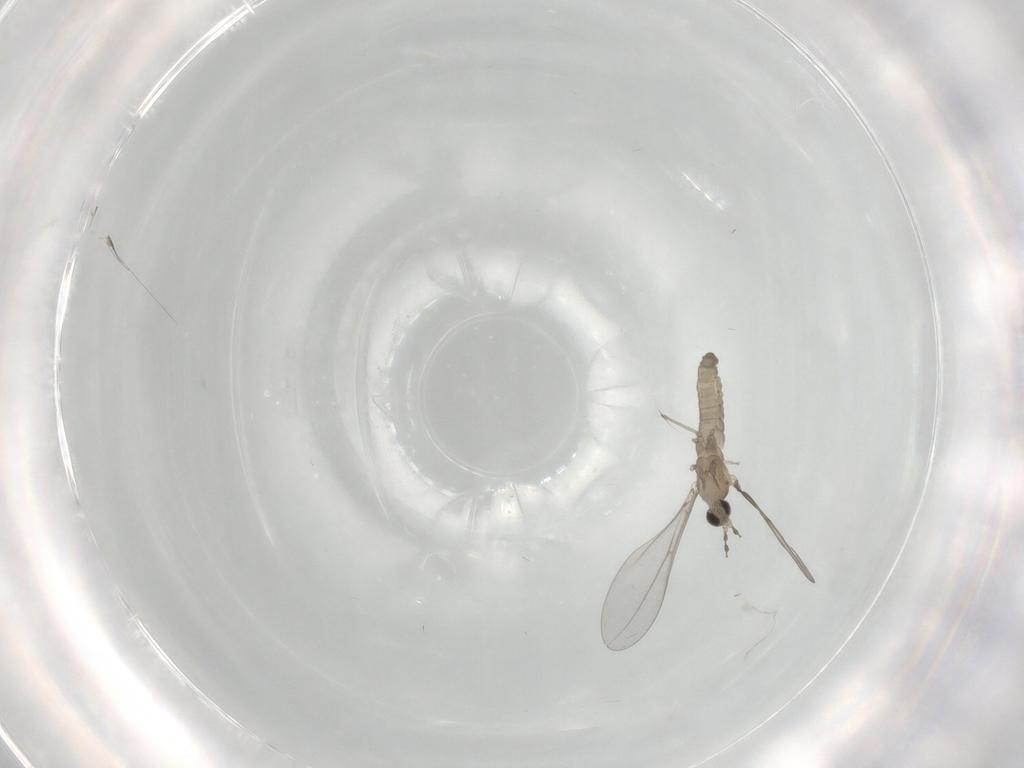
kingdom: Animalia
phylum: Arthropoda
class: Insecta
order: Diptera
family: Cecidomyiidae
